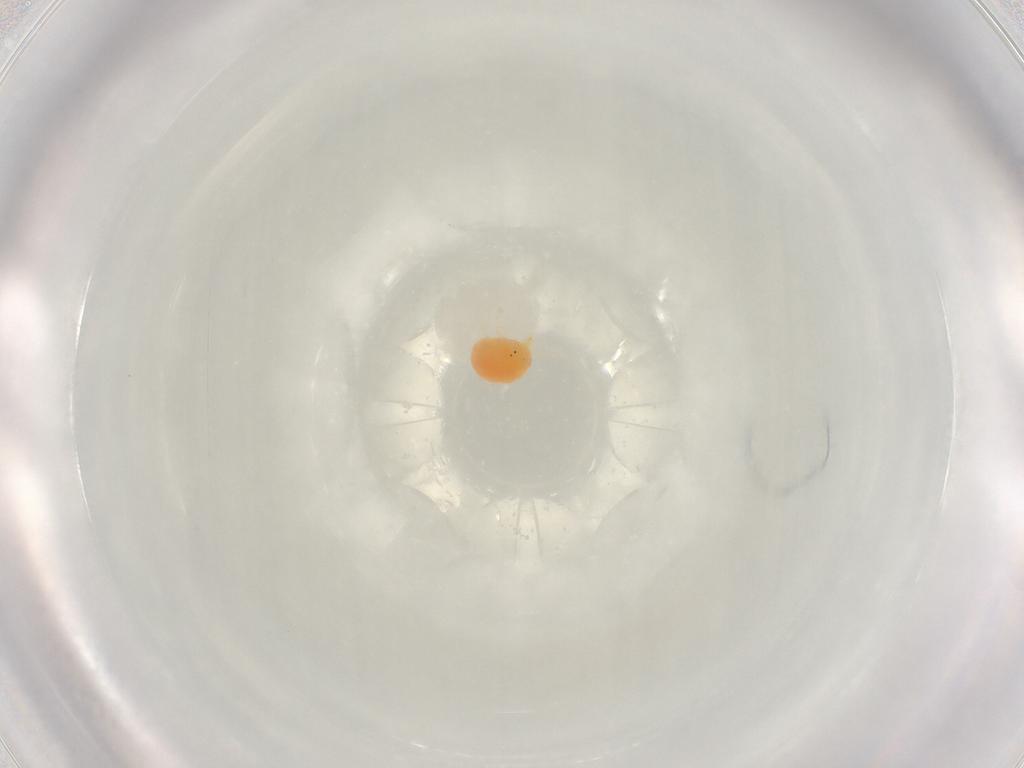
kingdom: Animalia
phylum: Arthropoda
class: Arachnida
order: Trombidiformes
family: Hydryphantidae
